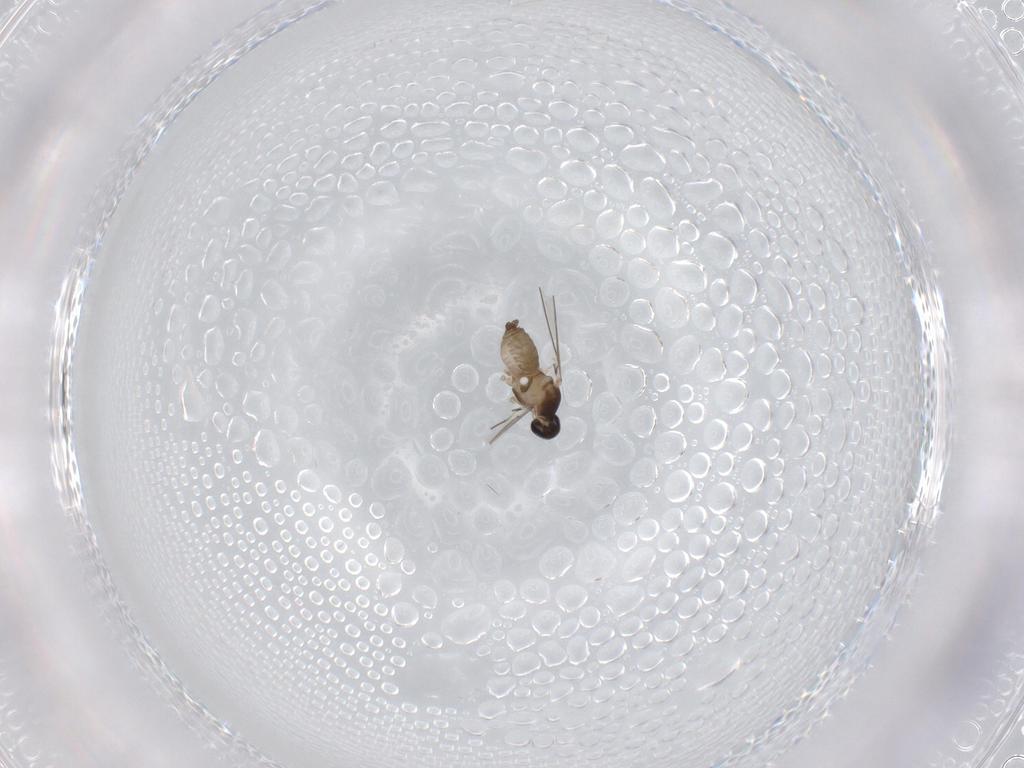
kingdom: Animalia
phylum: Arthropoda
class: Insecta
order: Diptera
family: Cecidomyiidae
